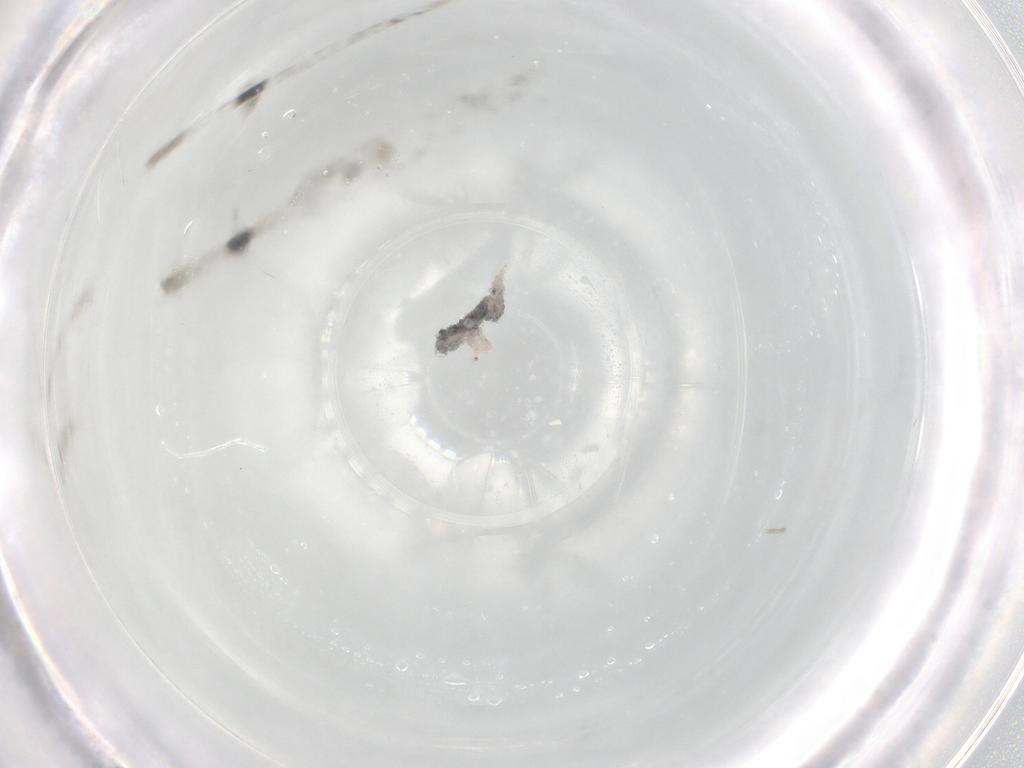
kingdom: Animalia
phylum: Arthropoda
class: Insecta
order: Diptera
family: Cecidomyiidae
